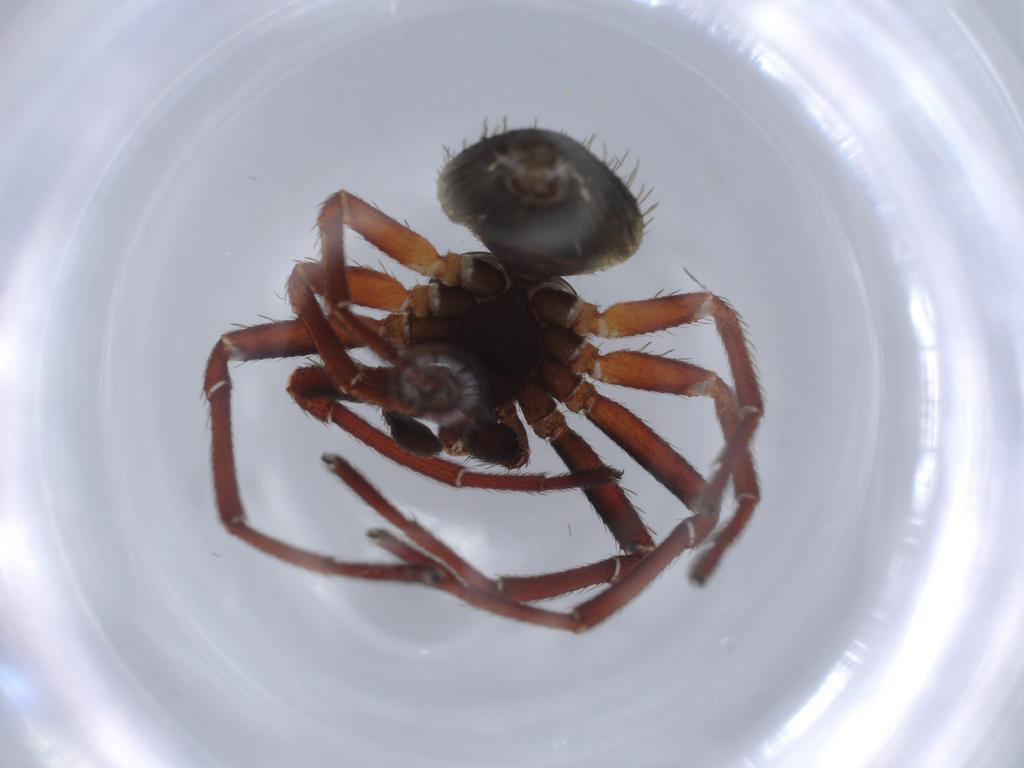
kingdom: Animalia
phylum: Arthropoda
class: Arachnida
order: Araneae
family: Thomisidae
